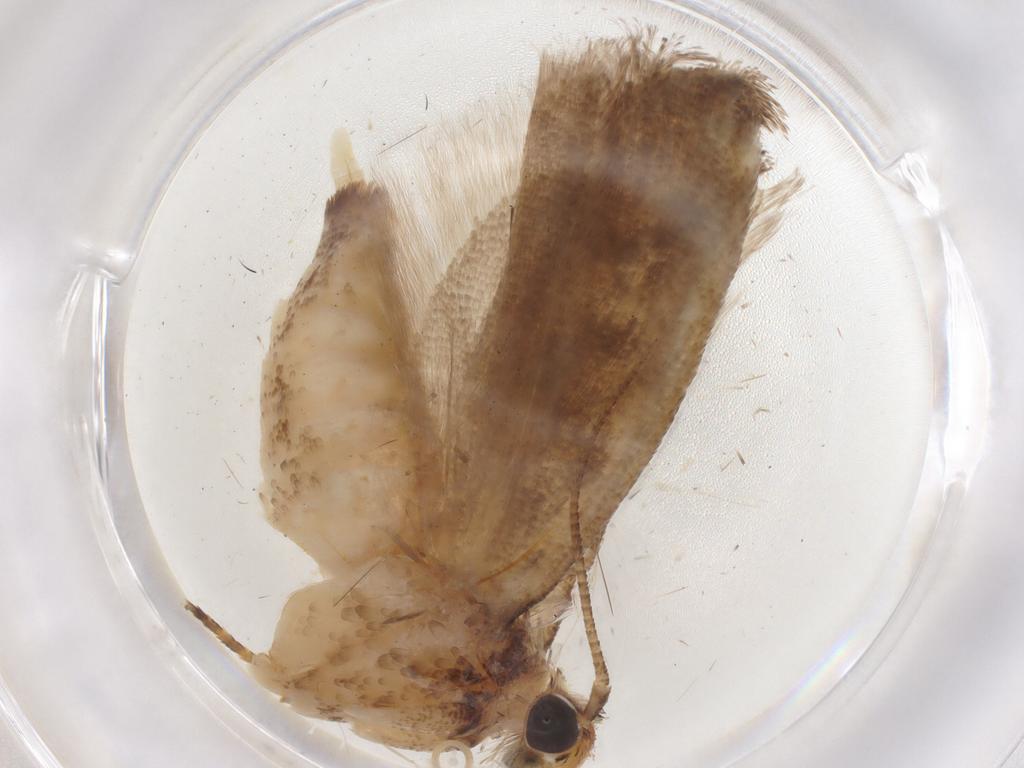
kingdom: Animalia
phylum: Arthropoda
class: Insecta
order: Lepidoptera
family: Gelechiidae
